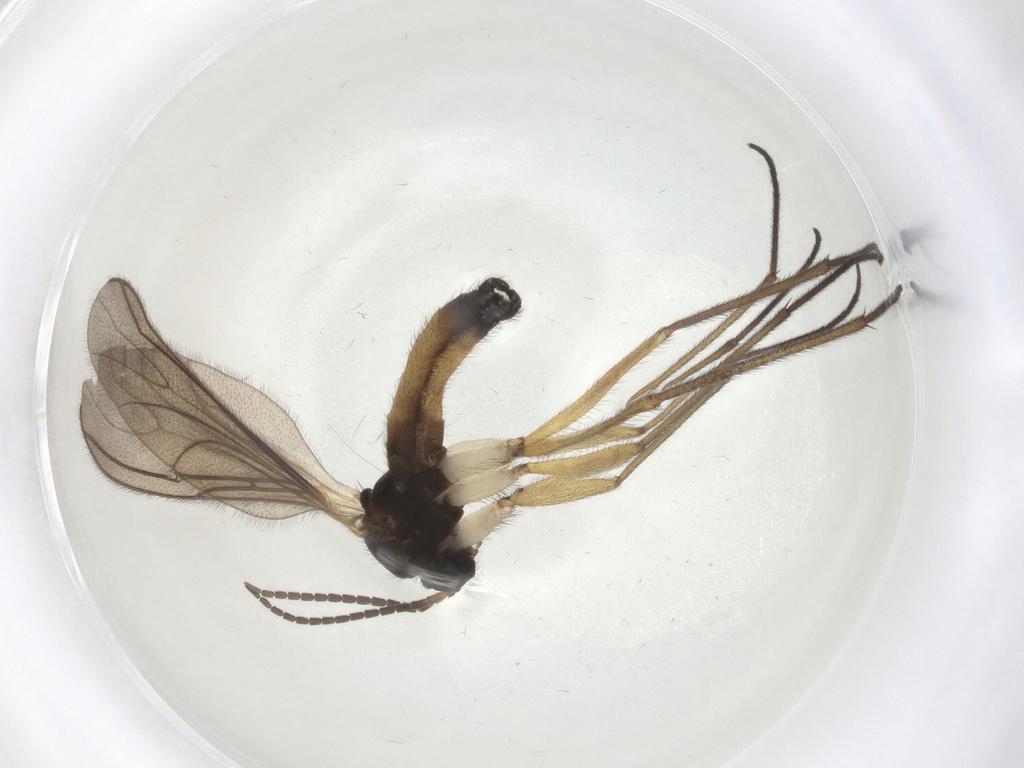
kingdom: Animalia
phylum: Arthropoda
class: Insecta
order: Diptera
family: Sciaridae
